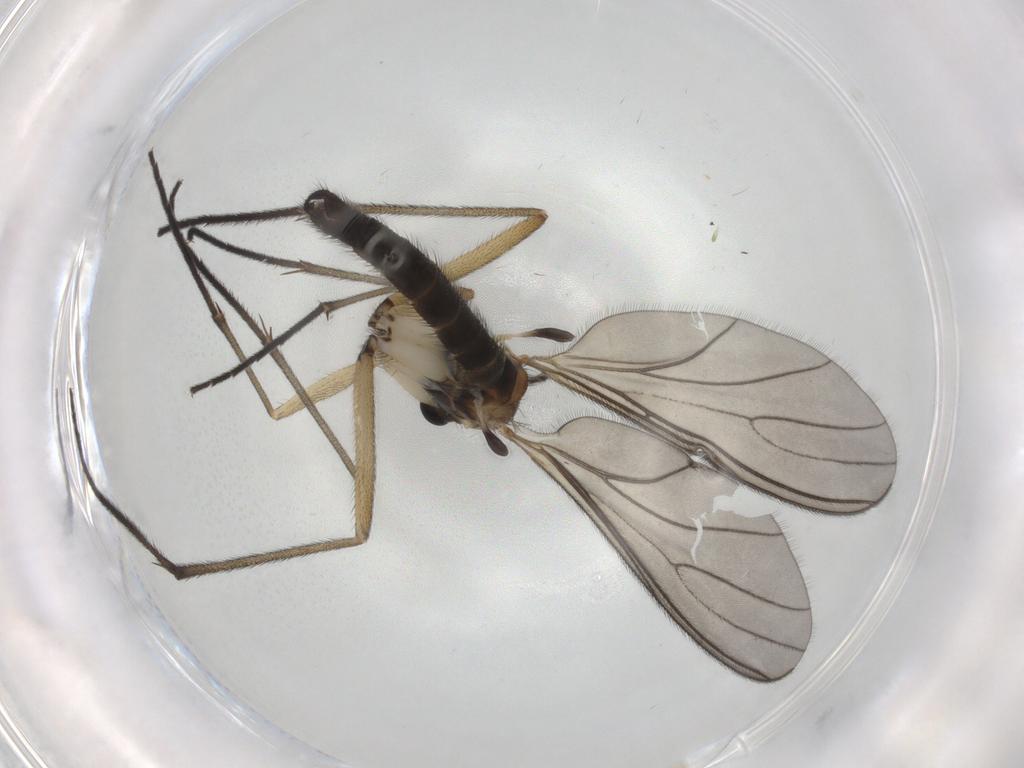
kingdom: Animalia
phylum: Arthropoda
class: Insecta
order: Diptera
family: Sciaridae
